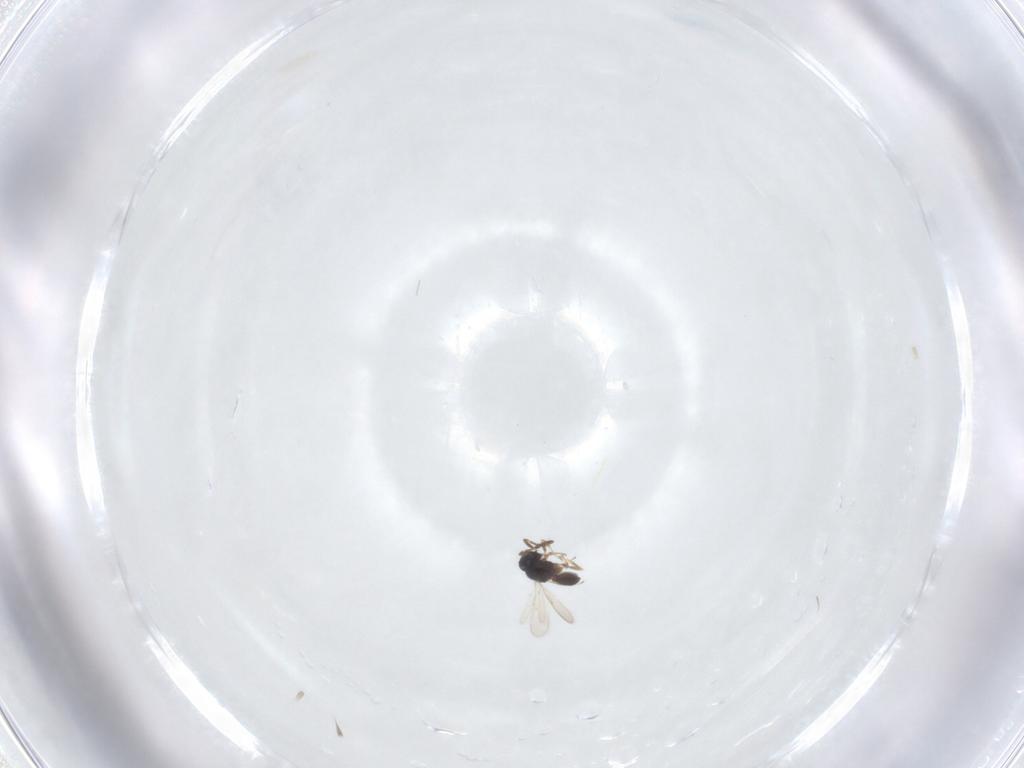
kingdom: Animalia
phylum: Arthropoda
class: Insecta
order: Hymenoptera
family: Scelionidae
